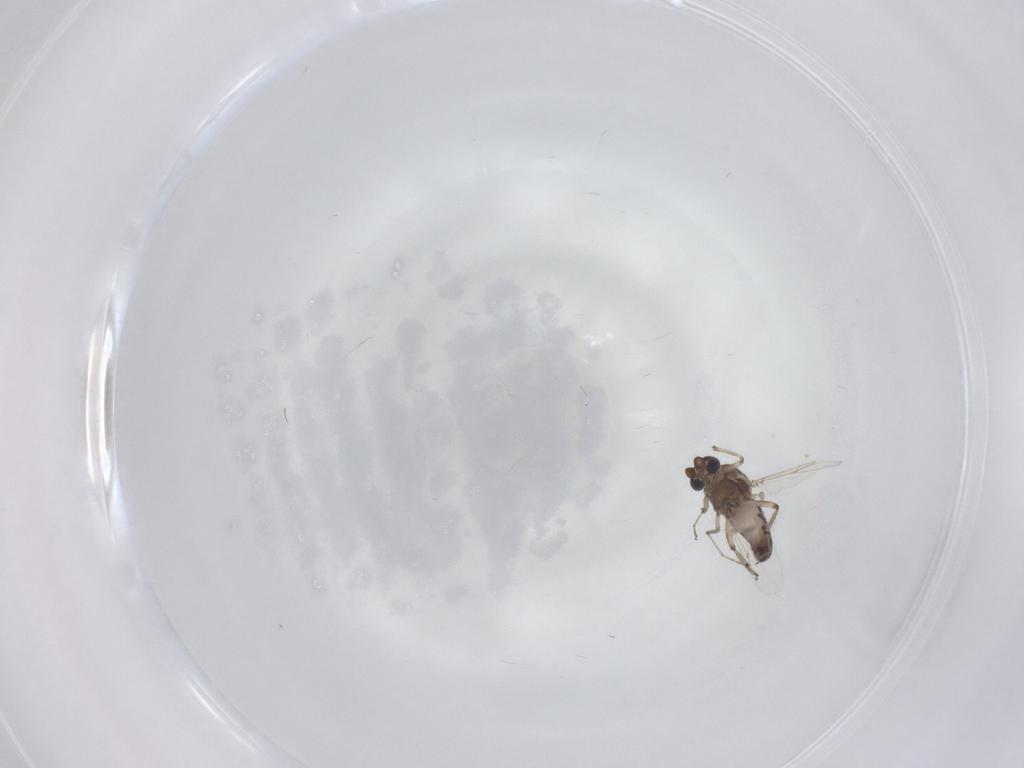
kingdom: Animalia
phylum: Arthropoda
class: Insecta
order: Diptera
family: Ceratopogonidae
